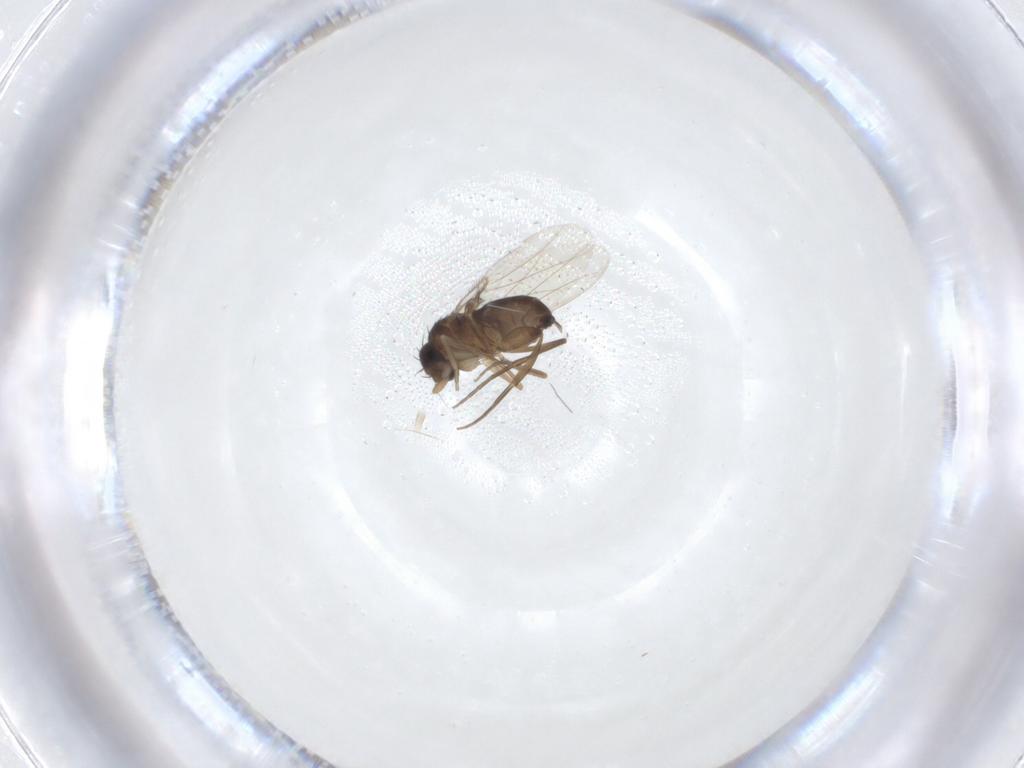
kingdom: Animalia
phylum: Arthropoda
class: Insecta
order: Diptera
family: Phoridae
